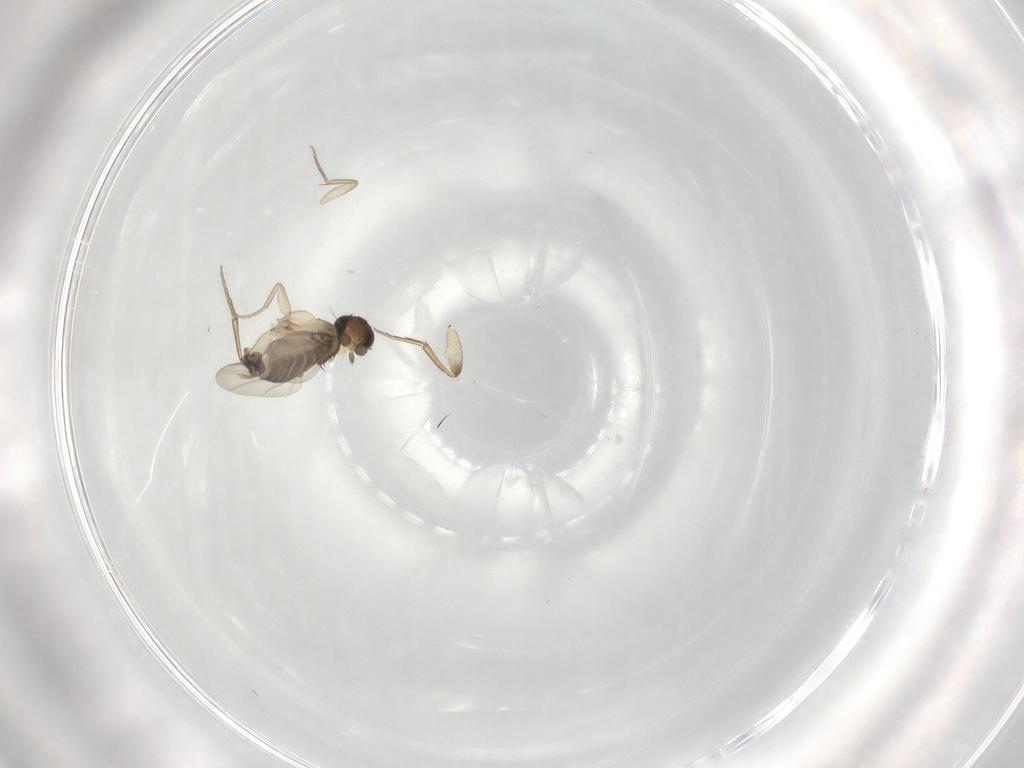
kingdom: Animalia
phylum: Arthropoda
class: Insecta
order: Diptera
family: Phoridae
